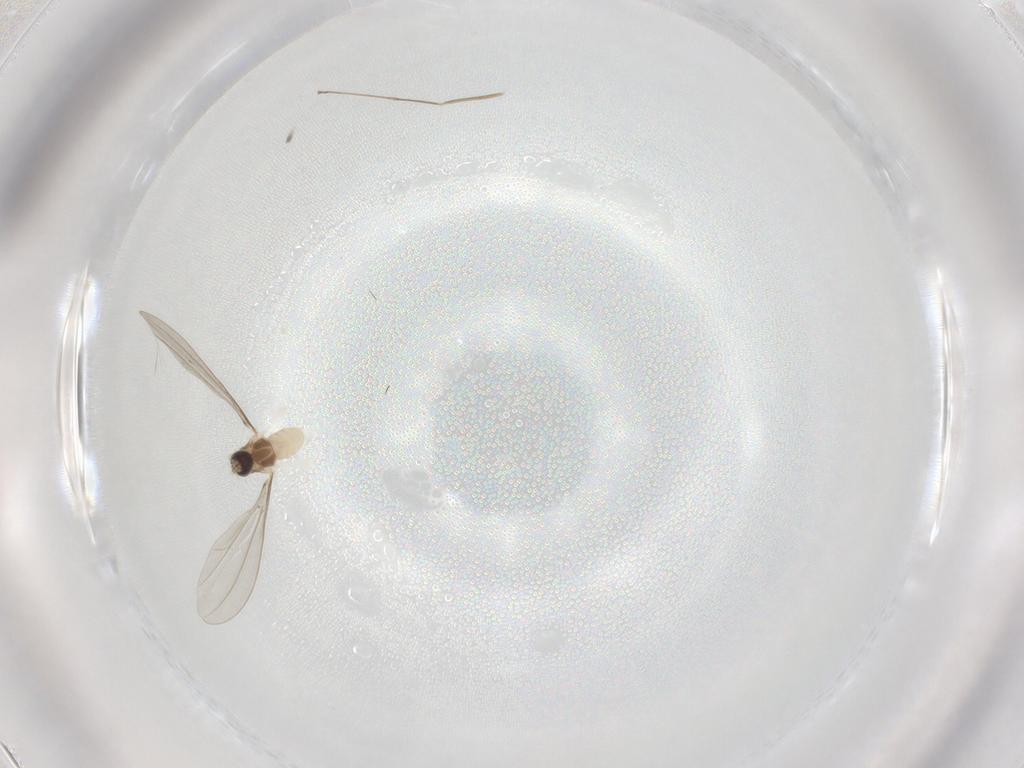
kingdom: Animalia
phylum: Arthropoda
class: Insecta
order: Diptera
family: Cecidomyiidae
